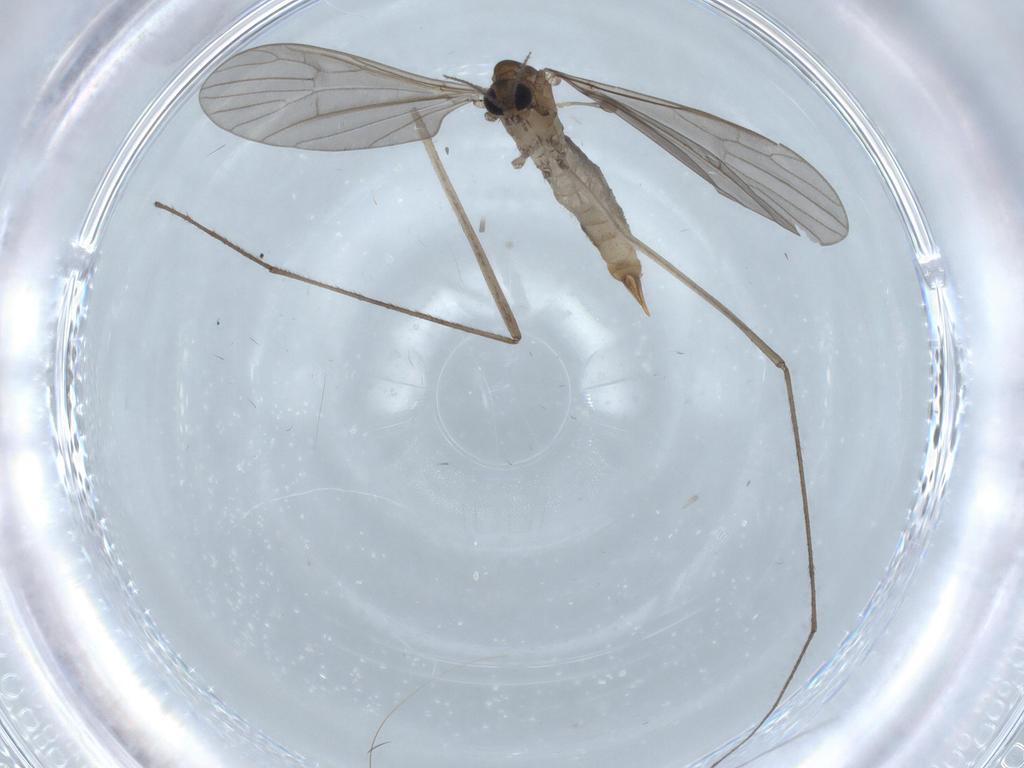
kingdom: Animalia
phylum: Arthropoda
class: Insecta
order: Diptera
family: Limoniidae
